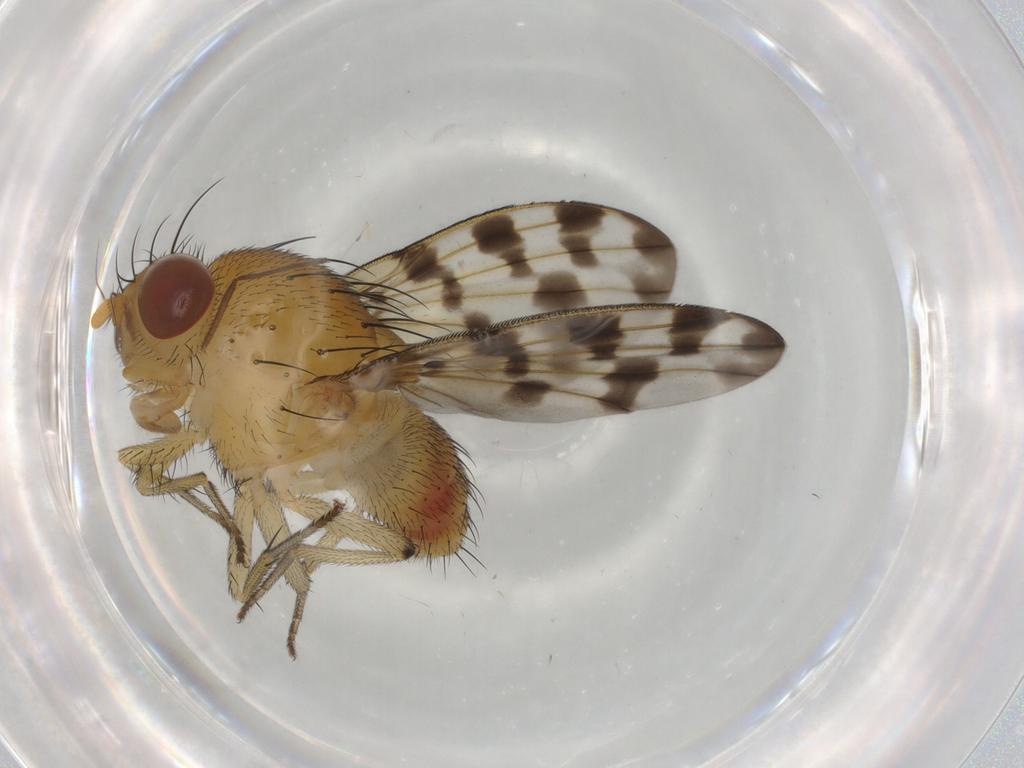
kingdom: Animalia
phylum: Arthropoda
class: Insecta
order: Diptera
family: Chironomidae
